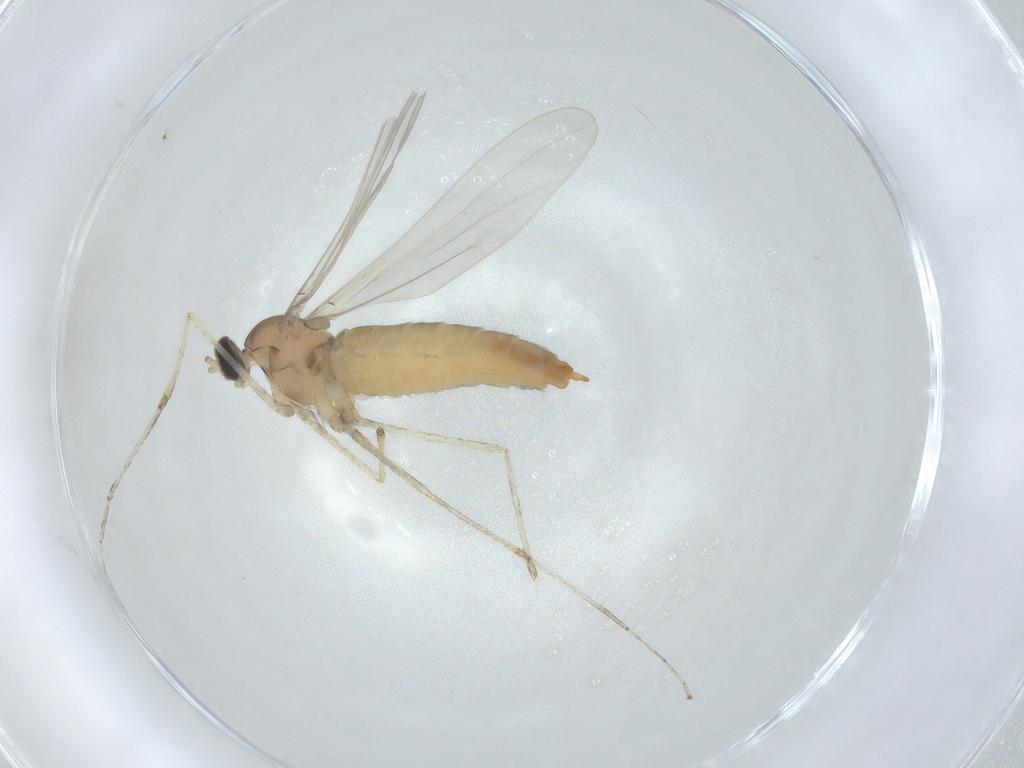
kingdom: Animalia
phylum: Arthropoda
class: Insecta
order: Diptera
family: Cecidomyiidae
